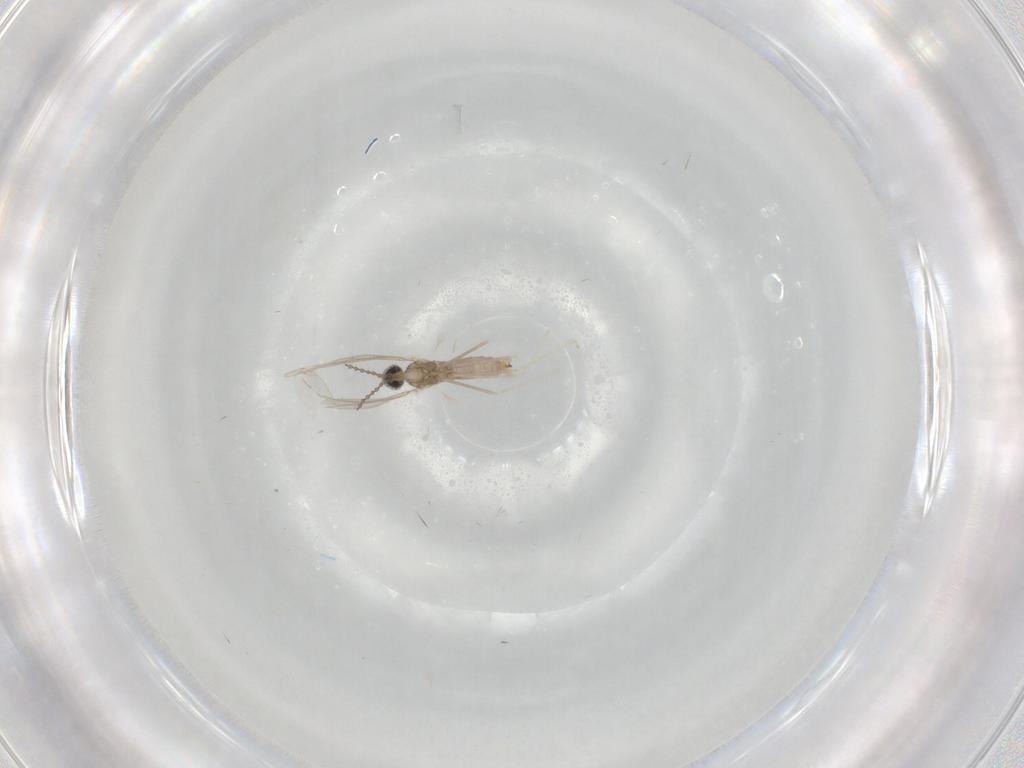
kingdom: Animalia
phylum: Arthropoda
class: Insecta
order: Diptera
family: Cecidomyiidae
